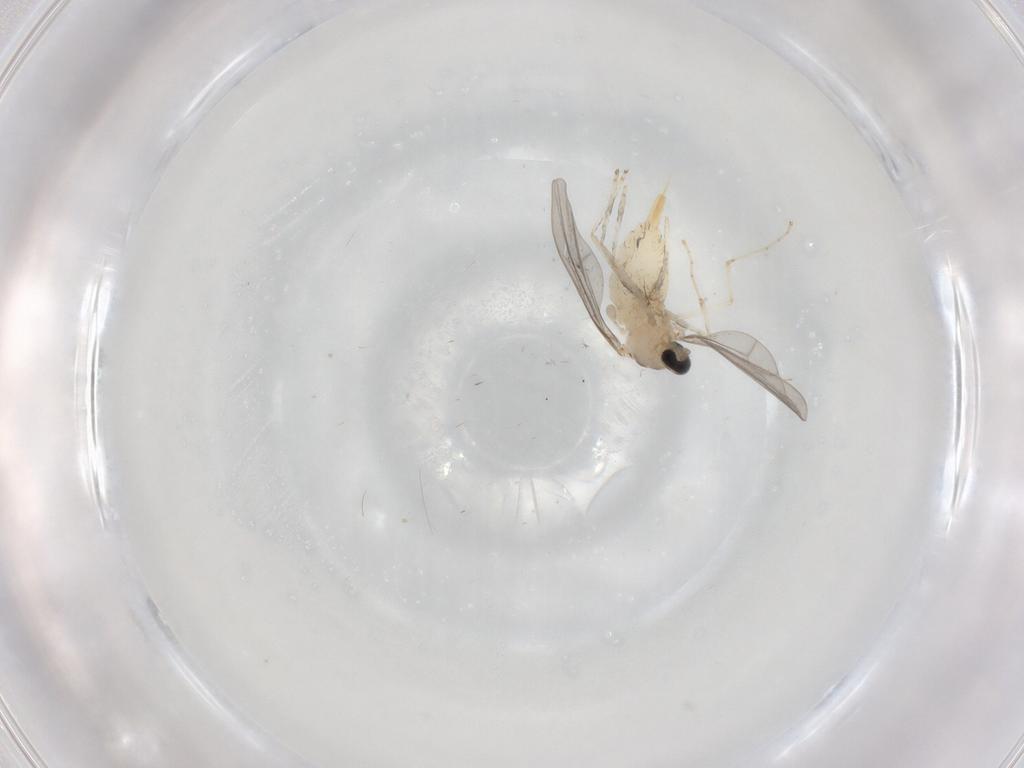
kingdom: Animalia
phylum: Arthropoda
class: Insecta
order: Diptera
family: Cecidomyiidae
